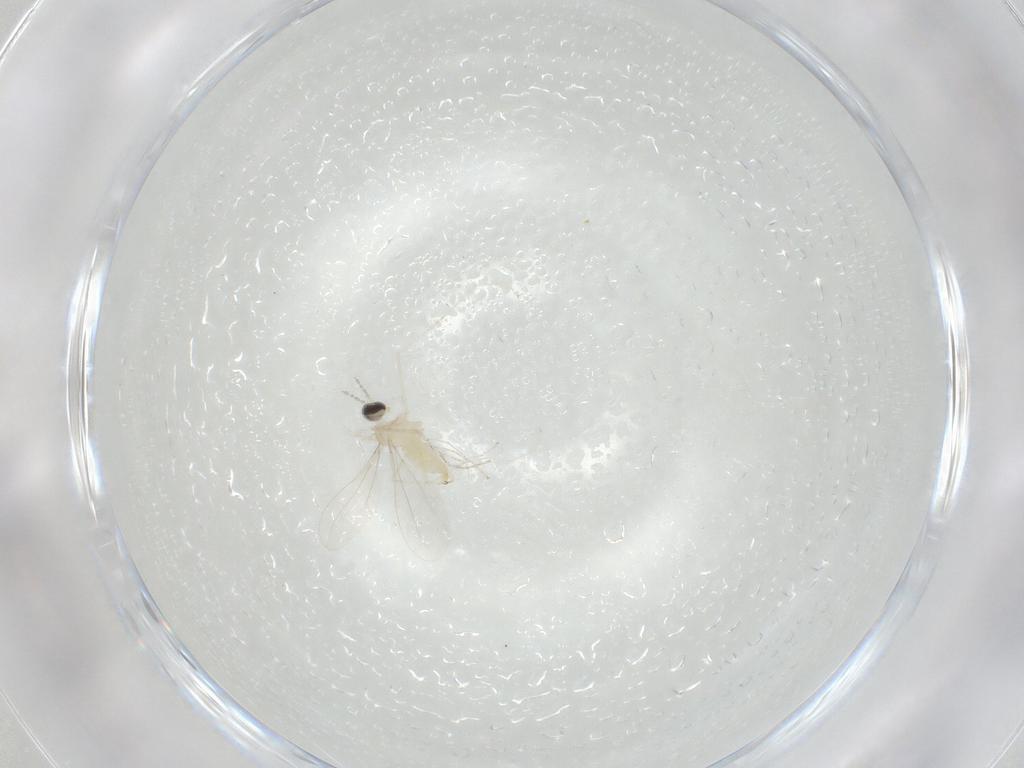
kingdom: Animalia
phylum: Arthropoda
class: Insecta
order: Diptera
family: Cecidomyiidae
